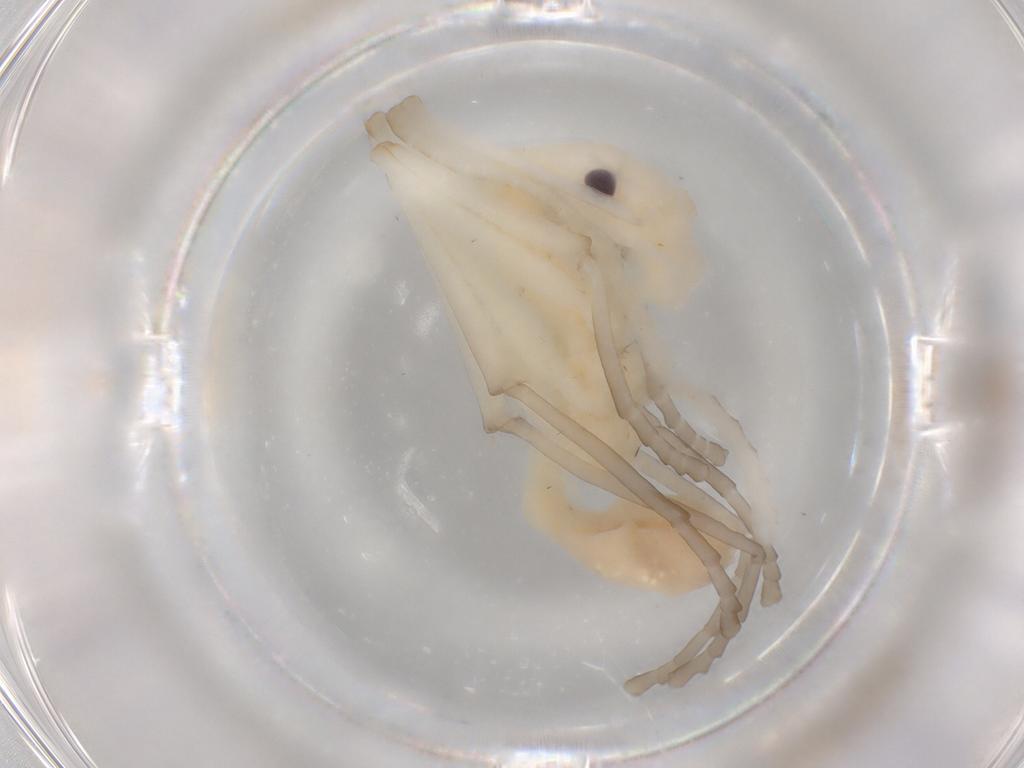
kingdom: Animalia
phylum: Arthropoda
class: Insecta
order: Hymenoptera
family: Formicidae
